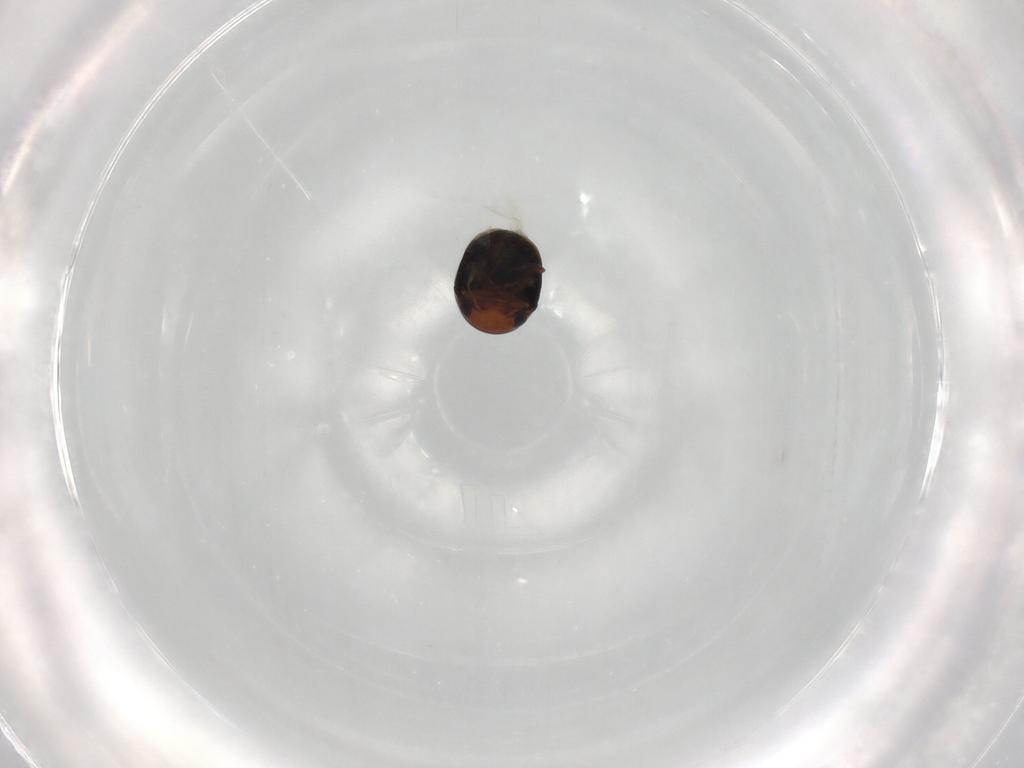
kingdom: Animalia
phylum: Arthropoda
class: Insecta
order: Coleoptera
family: Cybocephalidae
